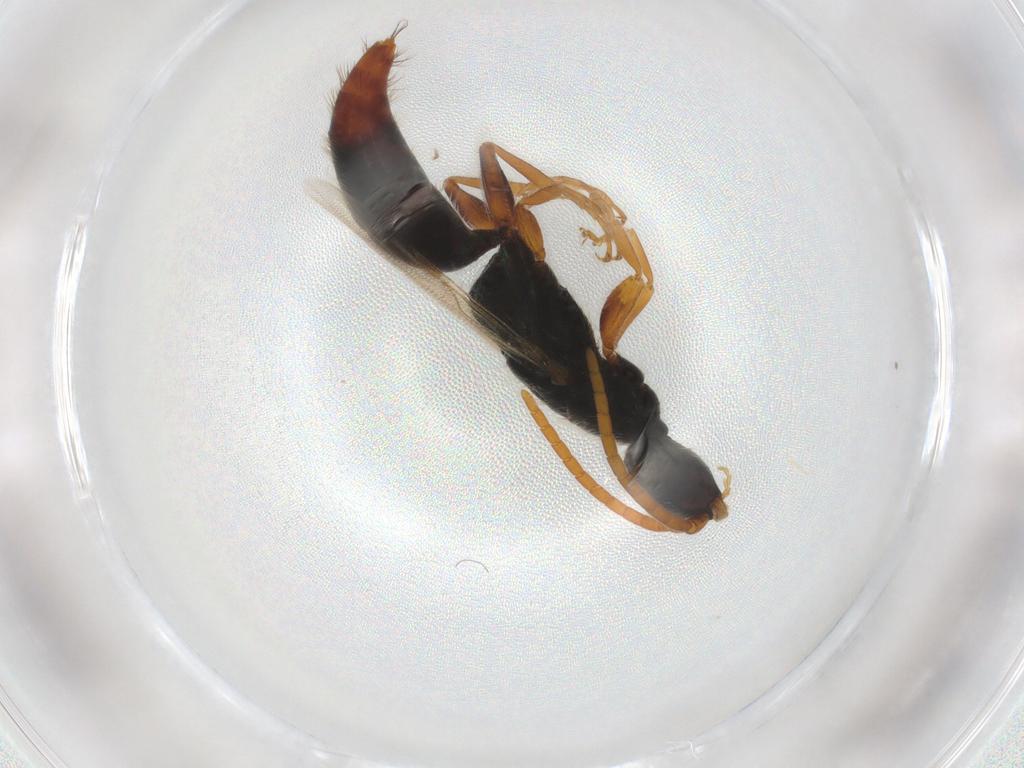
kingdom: Animalia
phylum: Arthropoda
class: Insecta
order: Hymenoptera
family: Bethylidae
